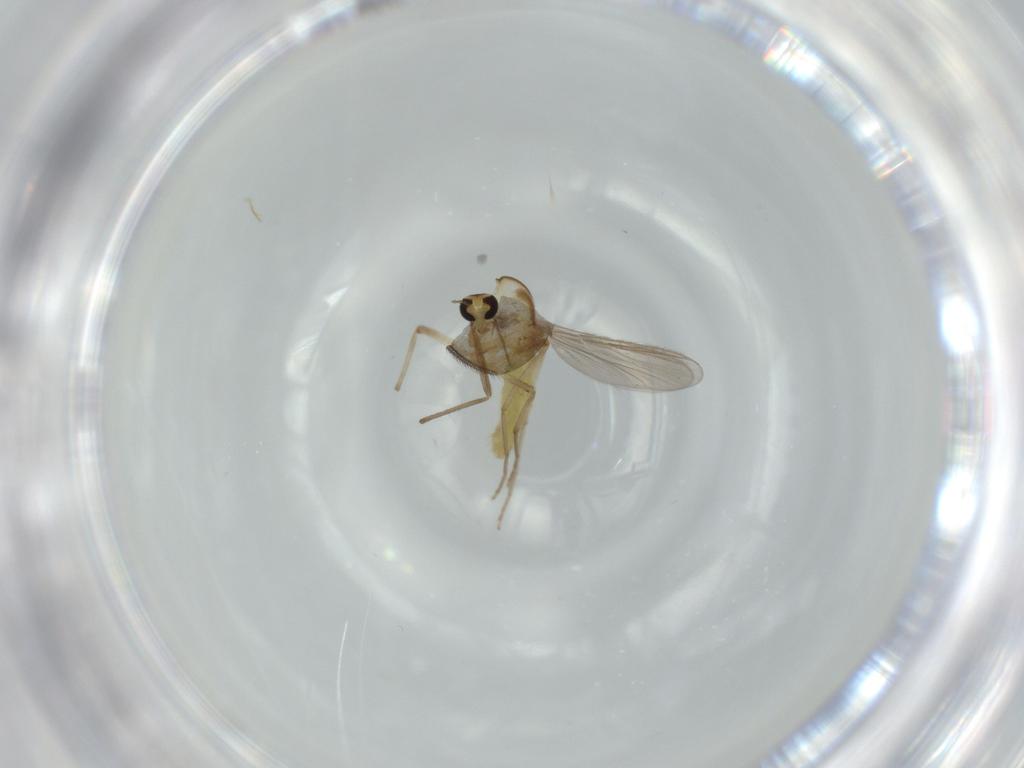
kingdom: Animalia
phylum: Arthropoda
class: Insecta
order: Diptera
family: Chironomidae
